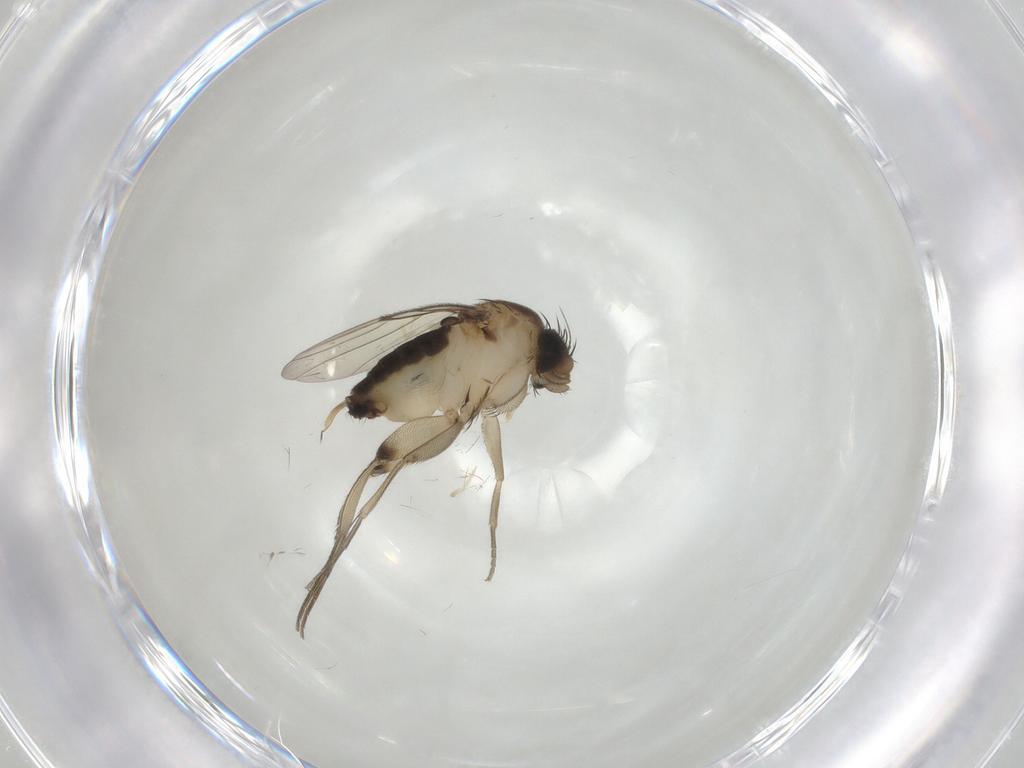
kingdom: Animalia
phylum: Arthropoda
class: Insecta
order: Diptera
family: Phoridae
